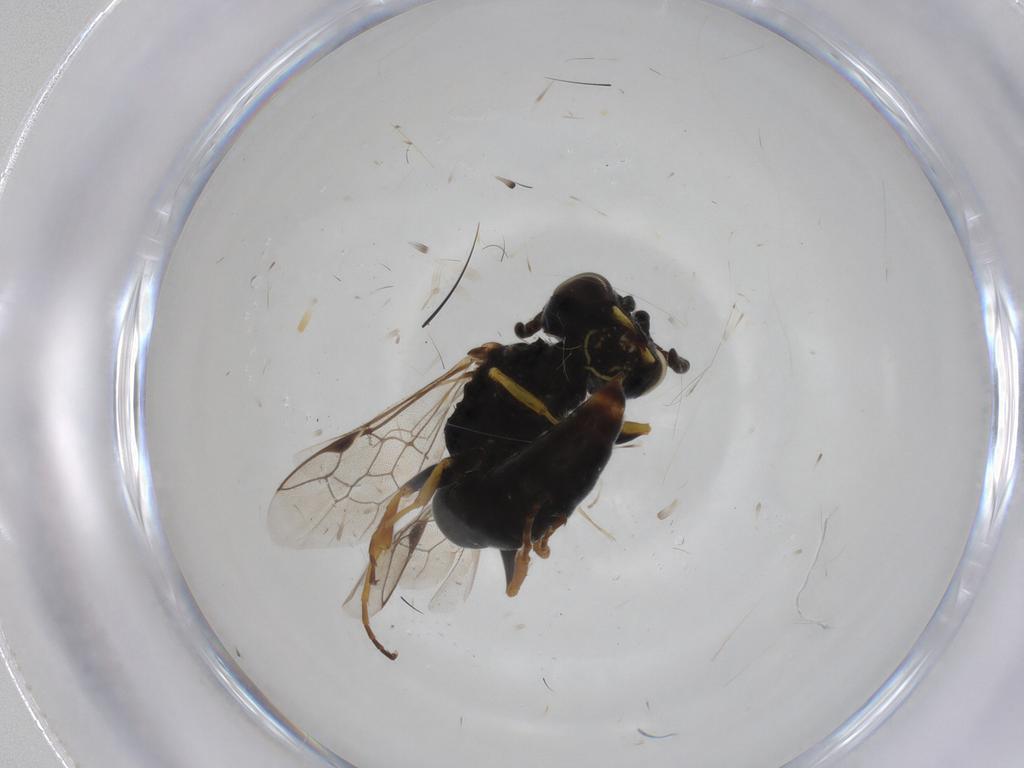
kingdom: Animalia
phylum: Arthropoda
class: Insecta
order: Hymenoptera
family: Pemphredonidae
